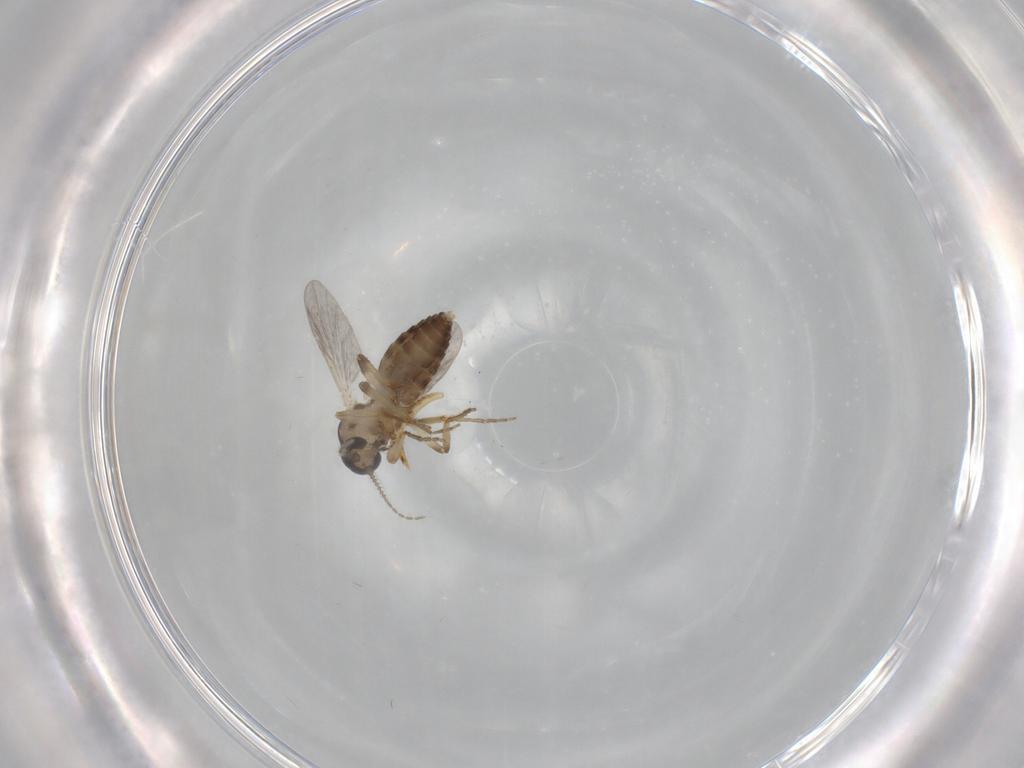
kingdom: Animalia
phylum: Arthropoda
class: Insecta
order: Diptera
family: Ceratopogonidae
